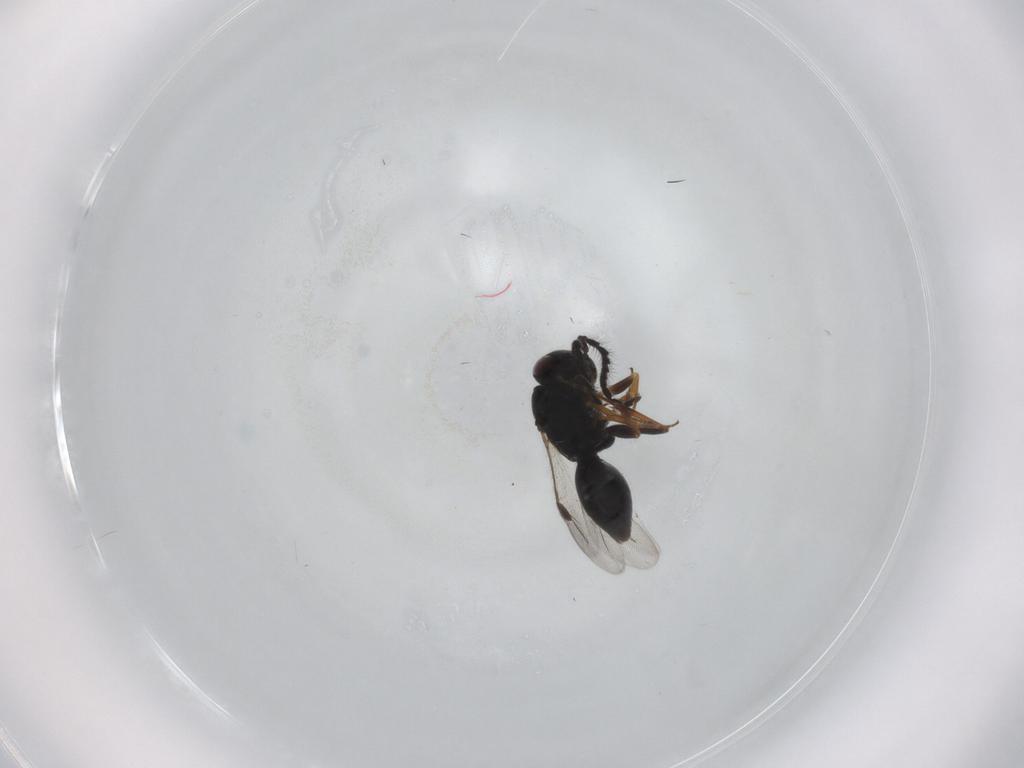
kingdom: Animalia
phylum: Arthropoda
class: Insecta
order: Hymenoptera
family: Megaspilidae
